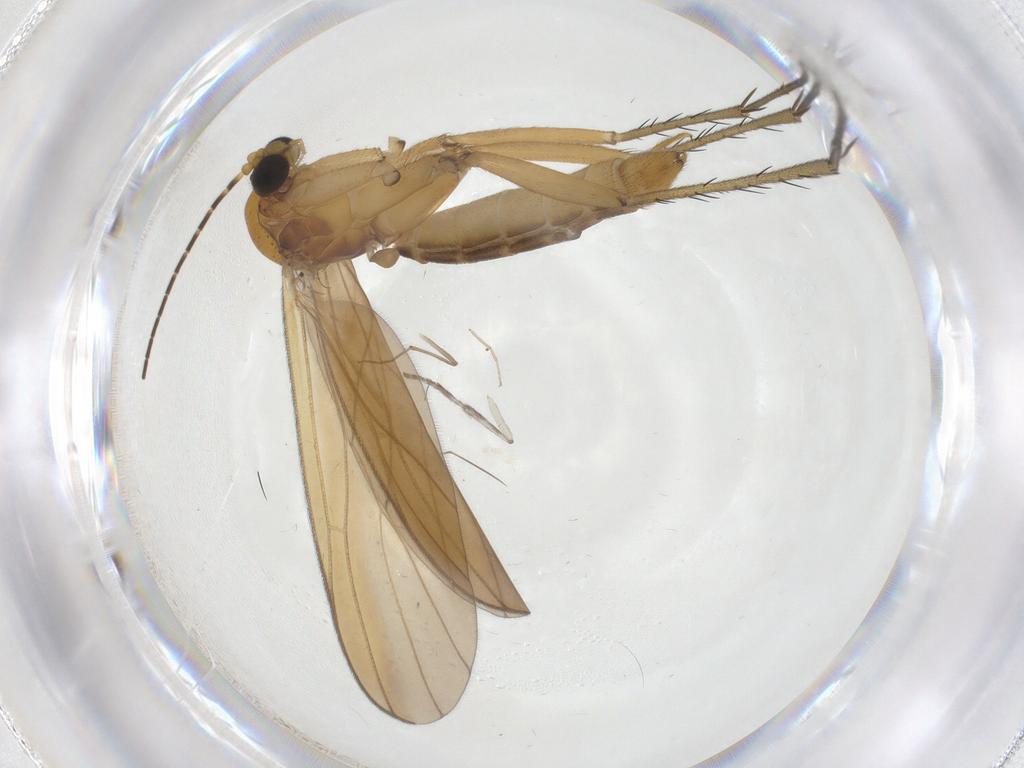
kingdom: Animalia
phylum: Arthropoda
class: Insecta
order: Diptera
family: Mycetophilidae
